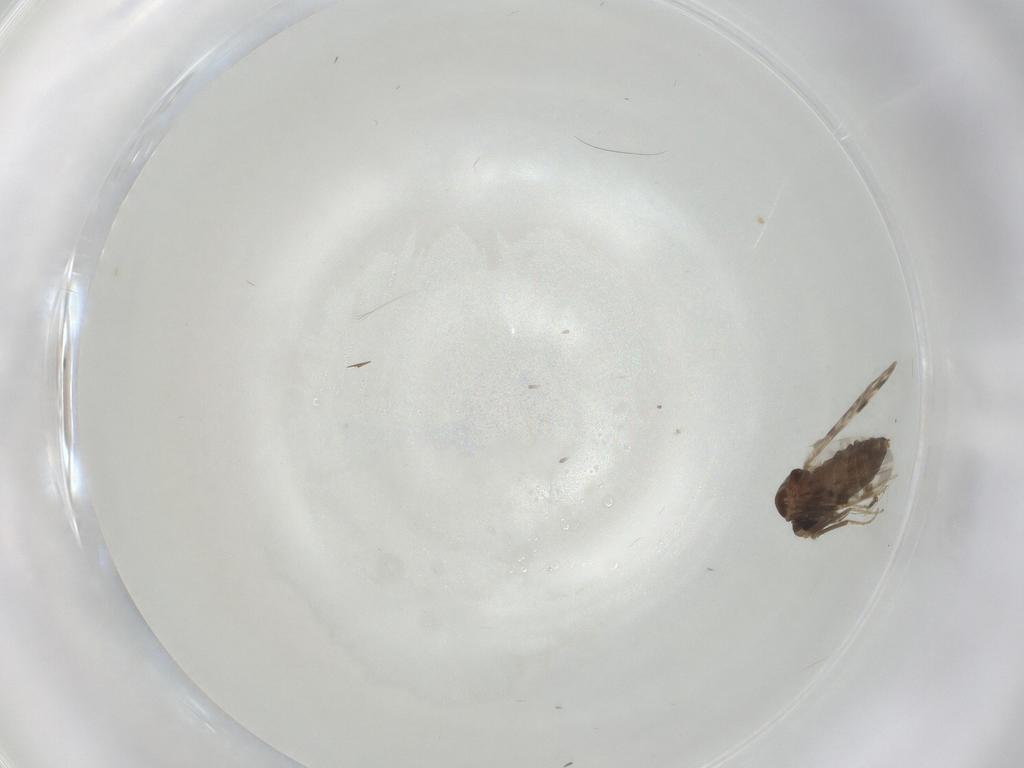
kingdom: Animalia
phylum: Arthropoda
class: Insecta
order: Diptera
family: Ceratopogonidae
